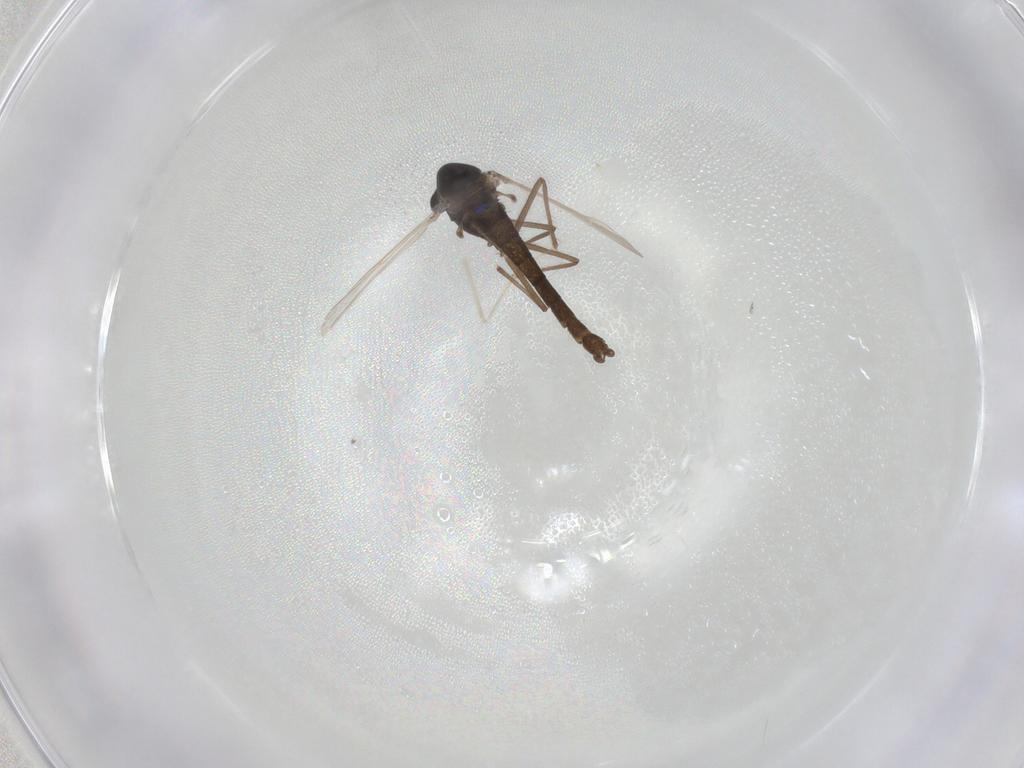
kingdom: Animalia
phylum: Arthropoda
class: Insecta
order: Diptera
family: Chironomidae
